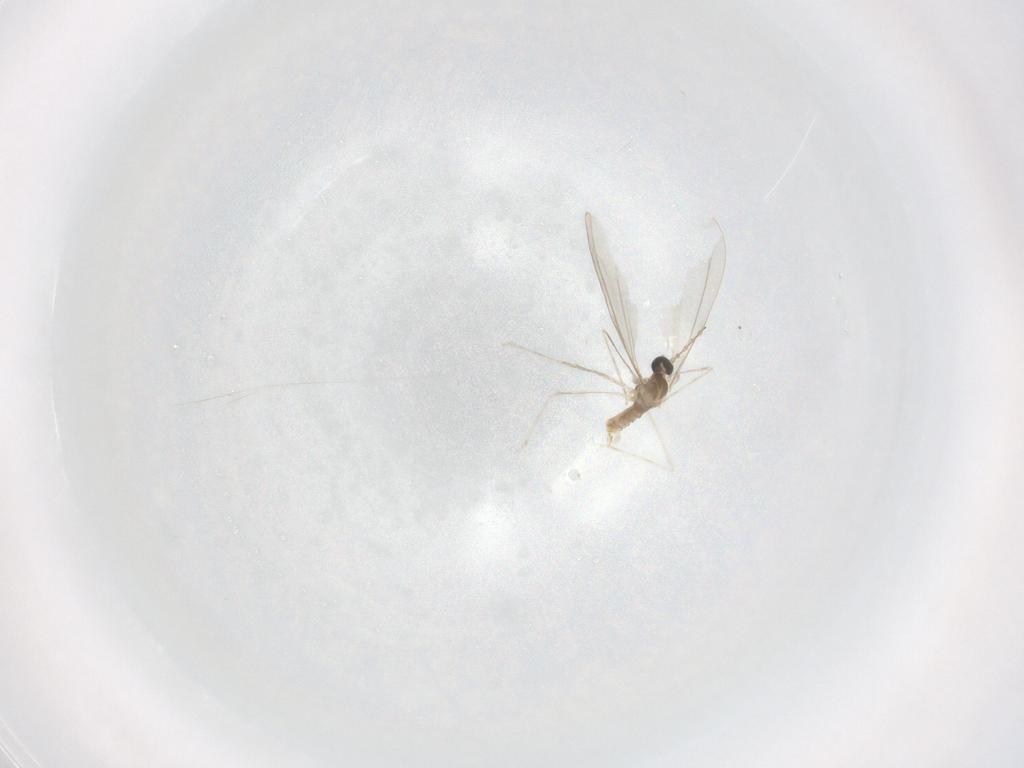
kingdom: Animalia
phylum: Arthropoda
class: Insecta
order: Diptera
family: Cecidomyiidae
